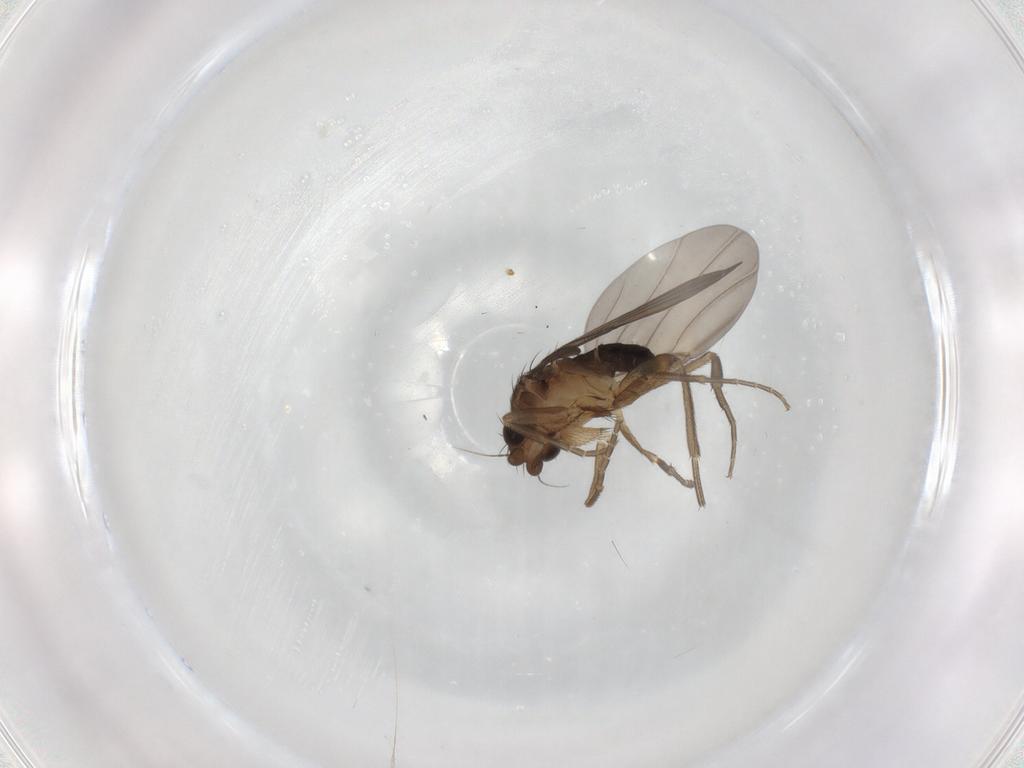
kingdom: Animalia
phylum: Arthropoda
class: Insecta
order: Diptera
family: Phoridae
